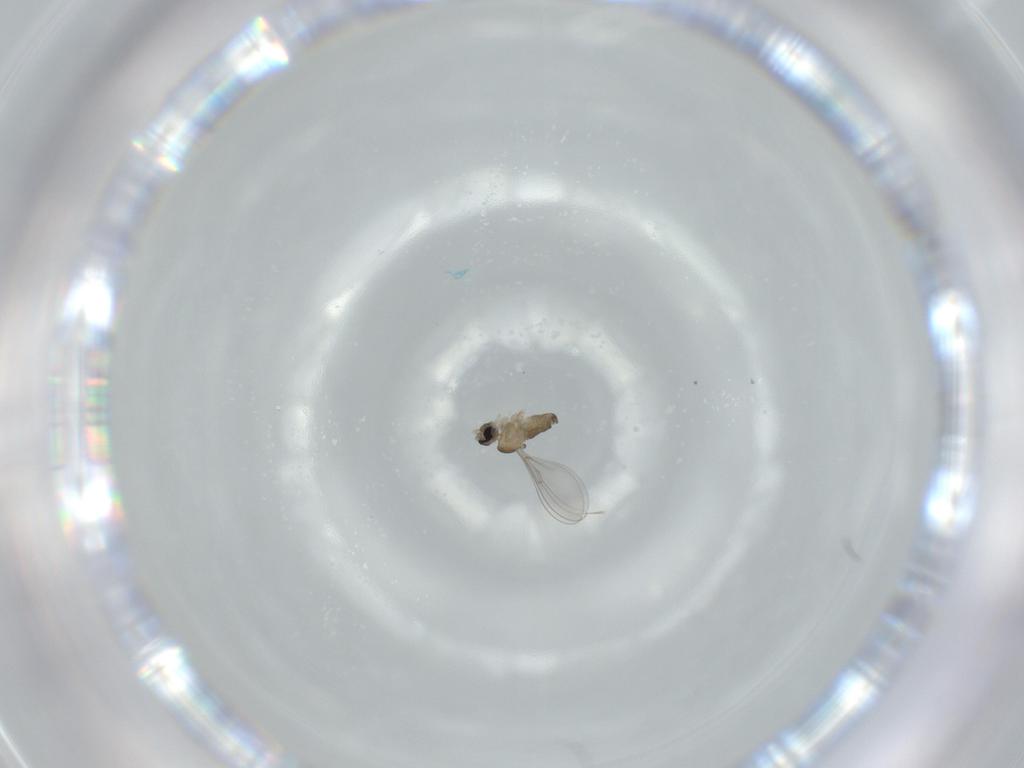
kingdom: Animalia
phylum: Arthropoda
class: Insecta
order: Diptera
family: Cecidomyiidae
